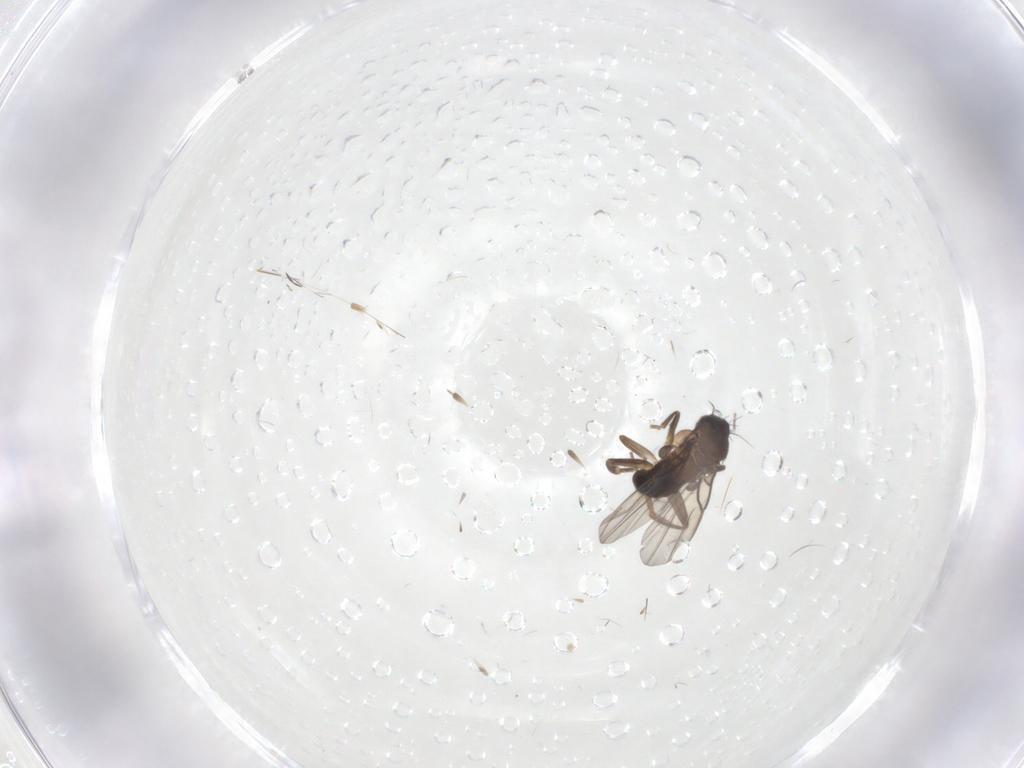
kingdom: Animalia
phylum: Arthropoda
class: Insecta
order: Diptera
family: Phoridae
